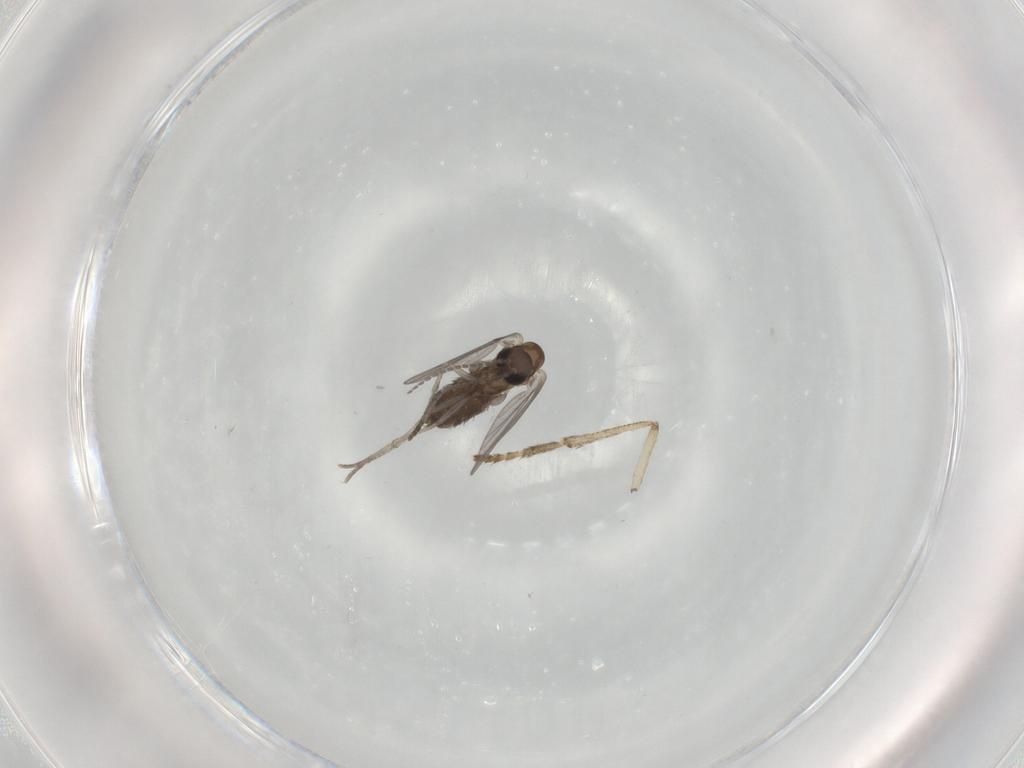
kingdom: Animalia
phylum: Arthropoda
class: Insecta
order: Diptera
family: Psychodidae
